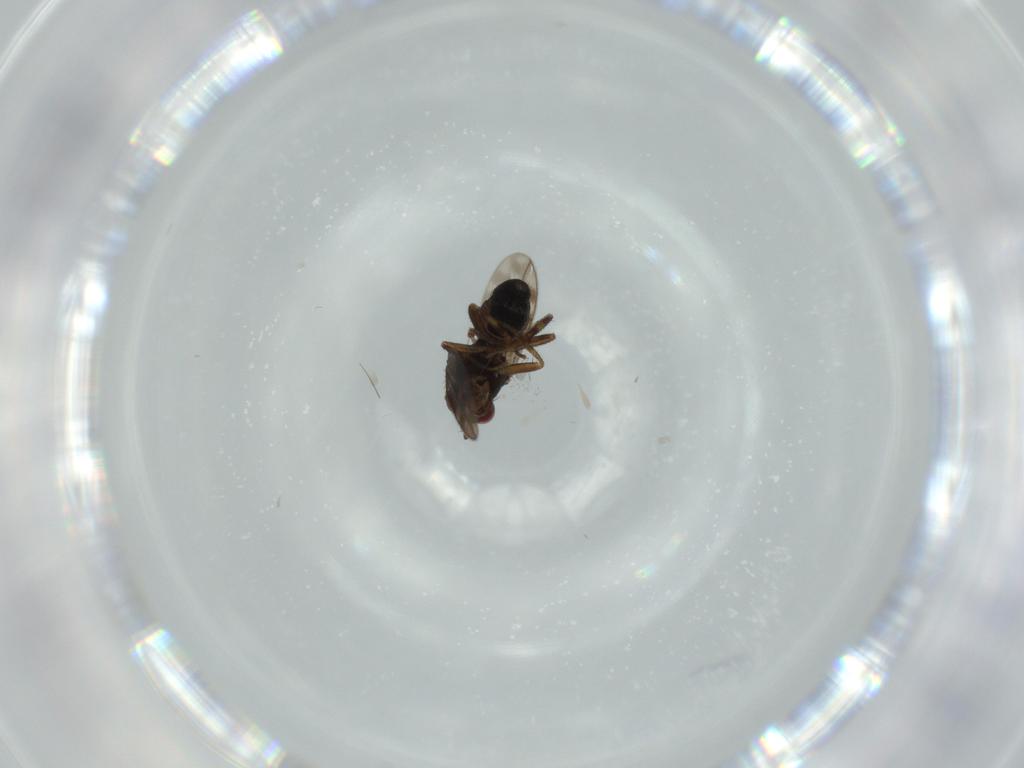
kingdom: Animalia
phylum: Arthropoda
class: Insecta
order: Diptera
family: Sphaeroceridae
